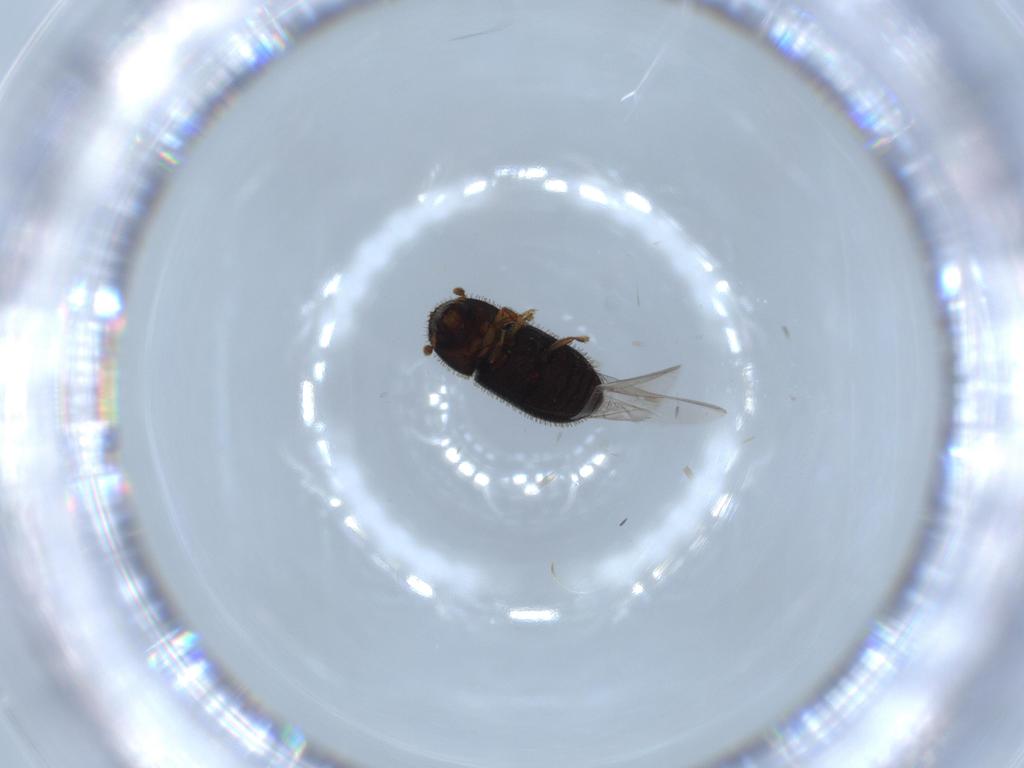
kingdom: Animalia
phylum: Arthropoda
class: Insecta
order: Coleoptera
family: Curculionidae
